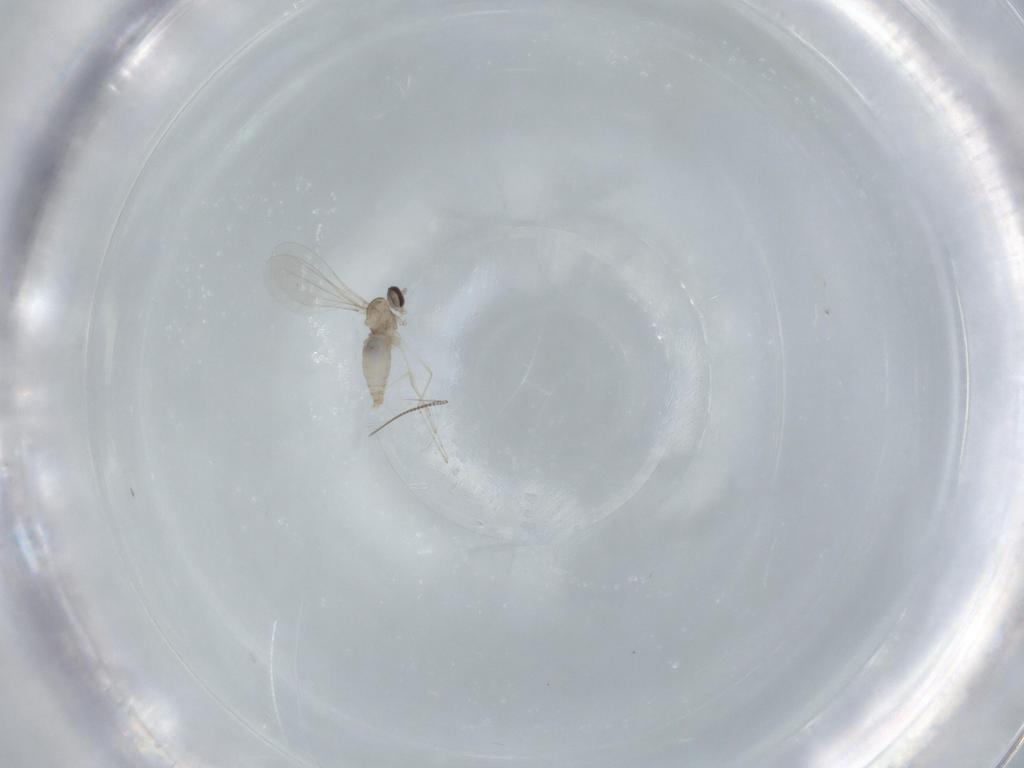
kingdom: Animalia
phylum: Arthropoda
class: Insecta
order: Diptera
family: Cecidomyiidae
